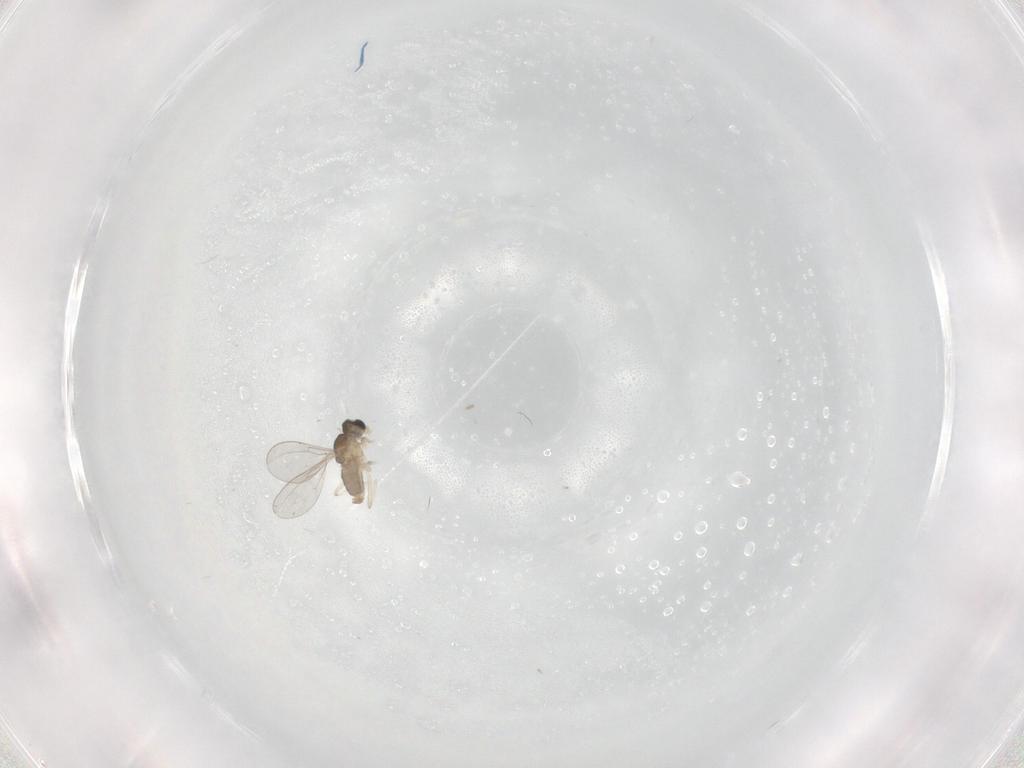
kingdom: Animalia
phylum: Arthropoda
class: Insecta
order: Diptera
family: Cecidomyiidae
